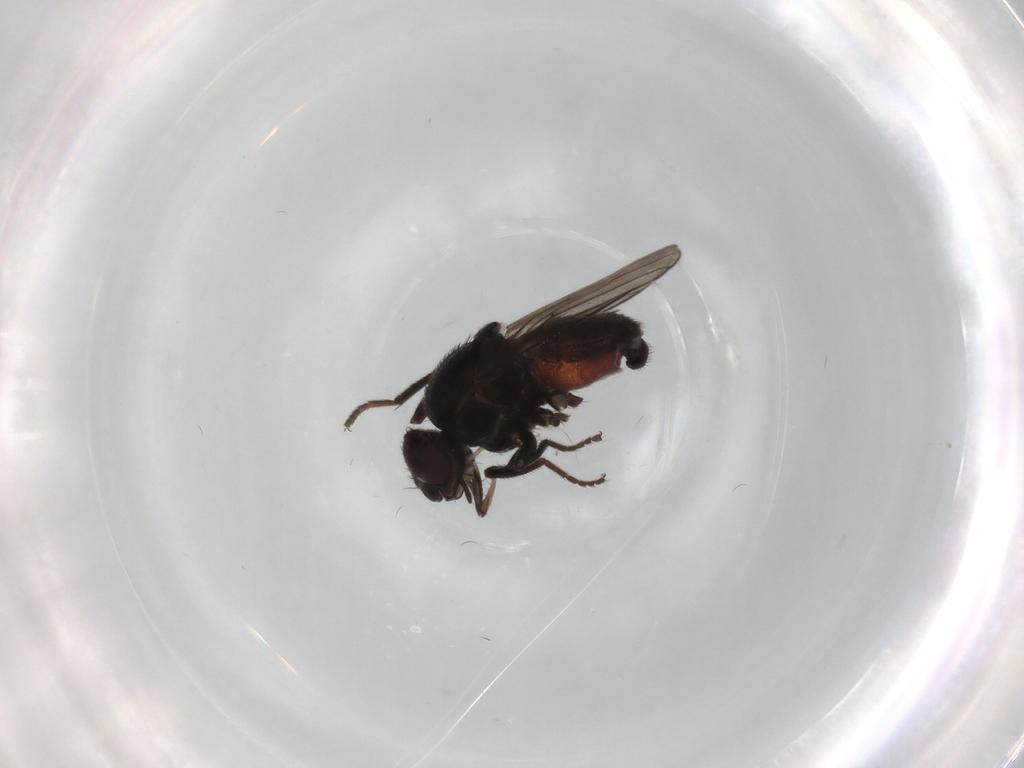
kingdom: Animalia
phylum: Arthropoda
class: Insecta
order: Diptera
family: Chloropidae
